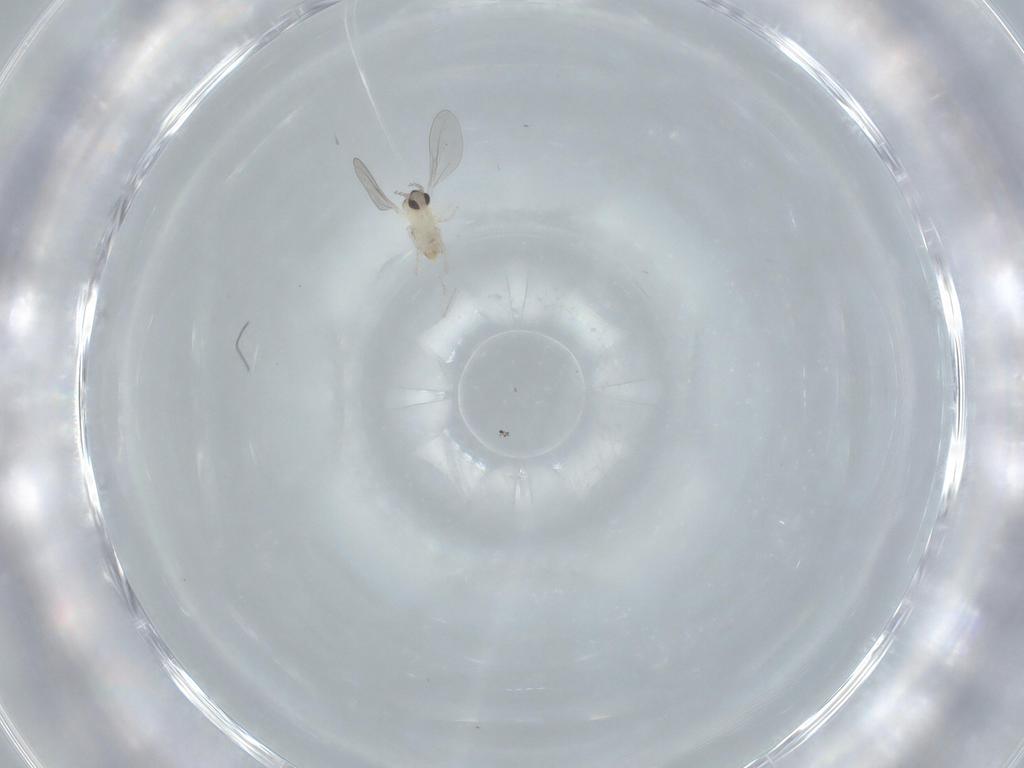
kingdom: Animalia
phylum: Arthropoda
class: Insecta
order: Diptera
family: Cecidomyiidae
